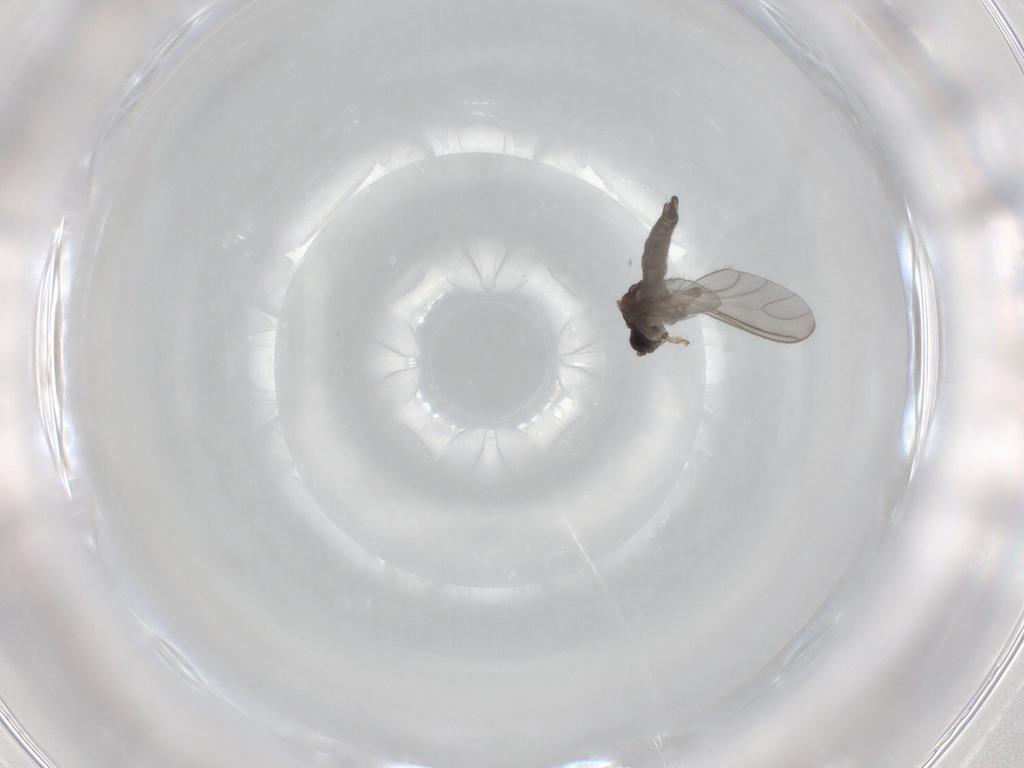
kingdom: Animalia
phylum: Arthropoda
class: Insecta
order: Diptera
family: Sciaridae
